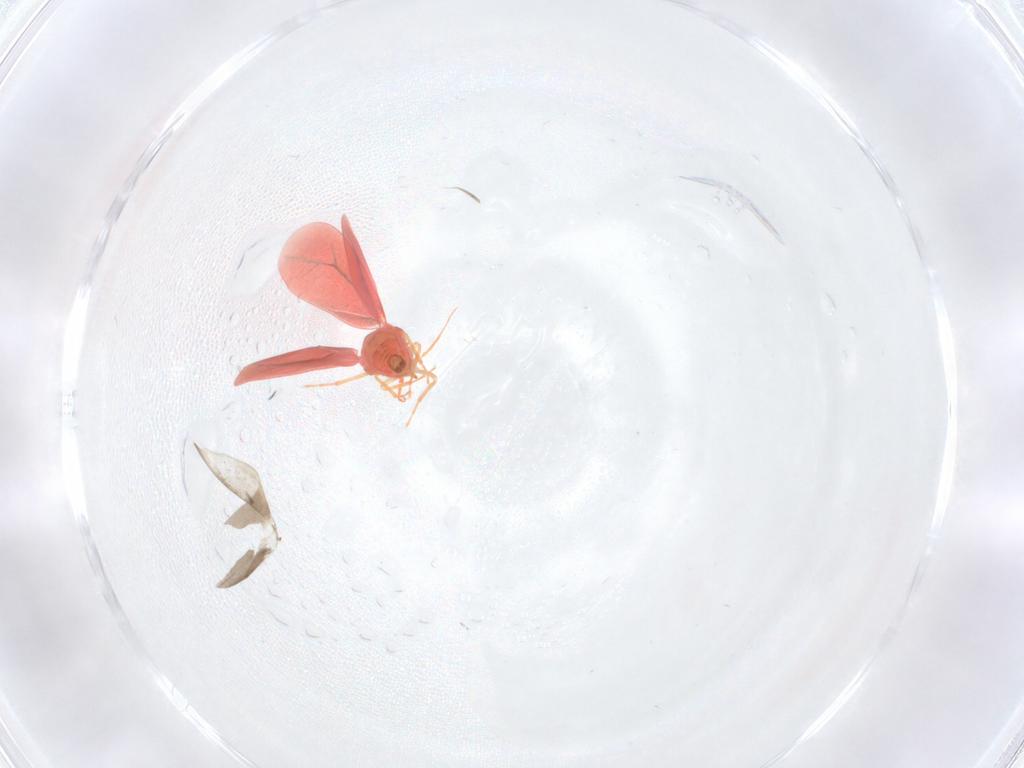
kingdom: Animalia
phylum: Arthropoda
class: Insecta
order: Hemiptera
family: Aleyrodidae
